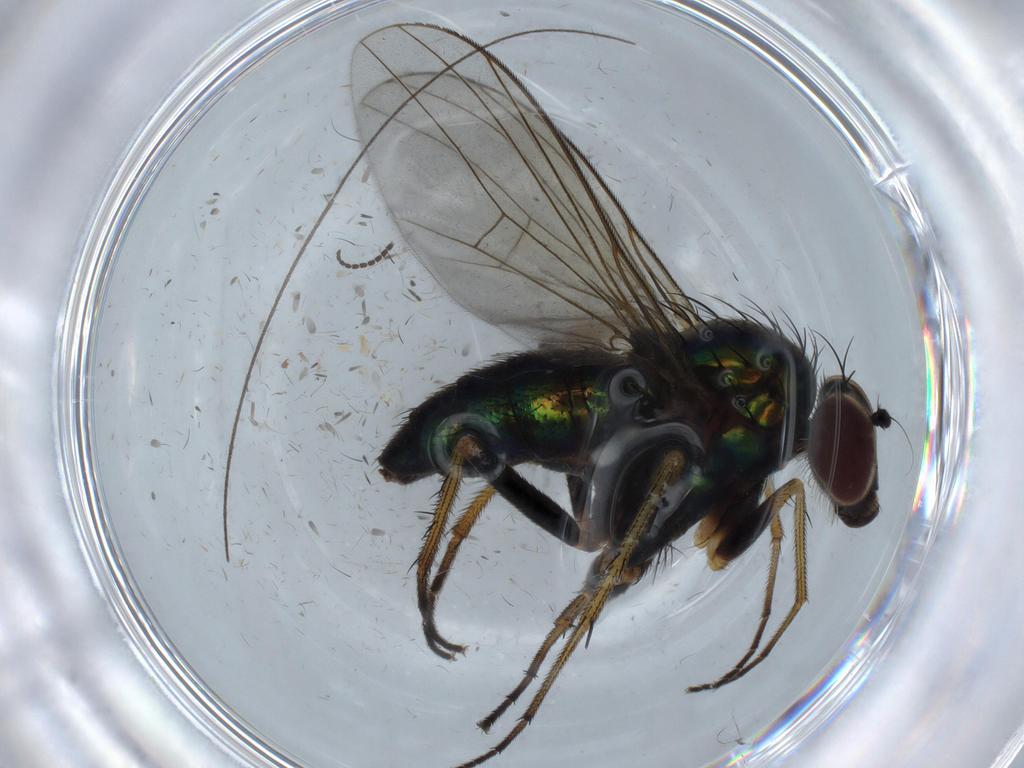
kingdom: Animalia
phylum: Arthropoda
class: Insecta
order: Diptera
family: Dolichopodidae
